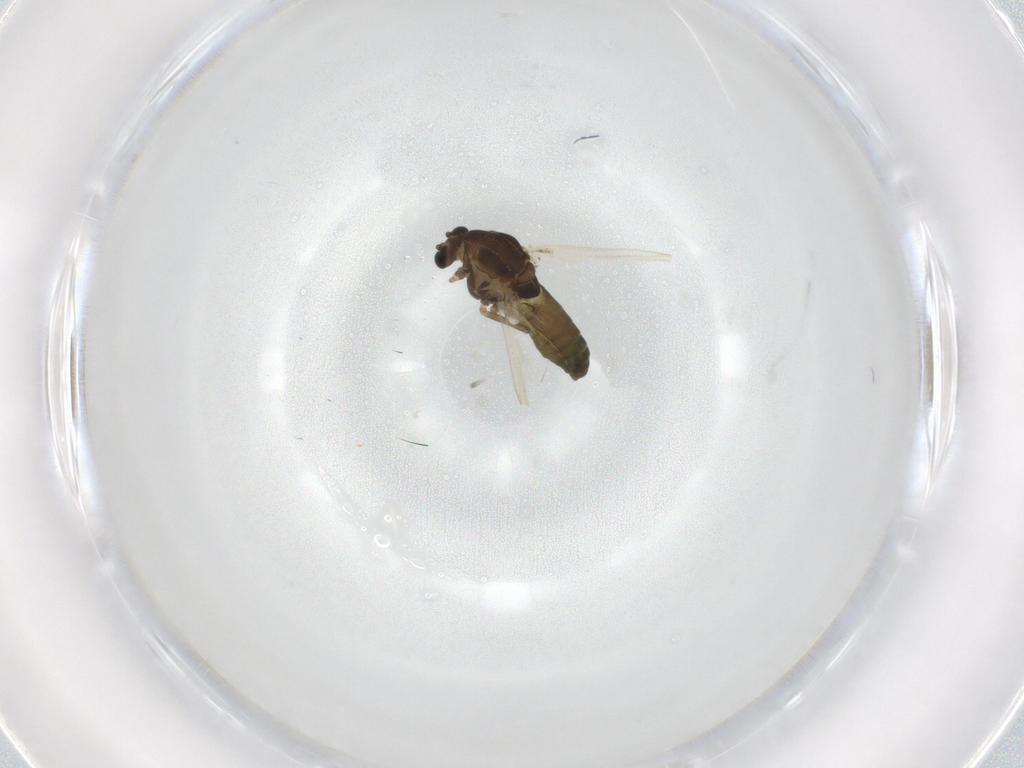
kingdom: Animalia
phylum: Arthropoda
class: Insecta
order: Diptera
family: Chironomidae
